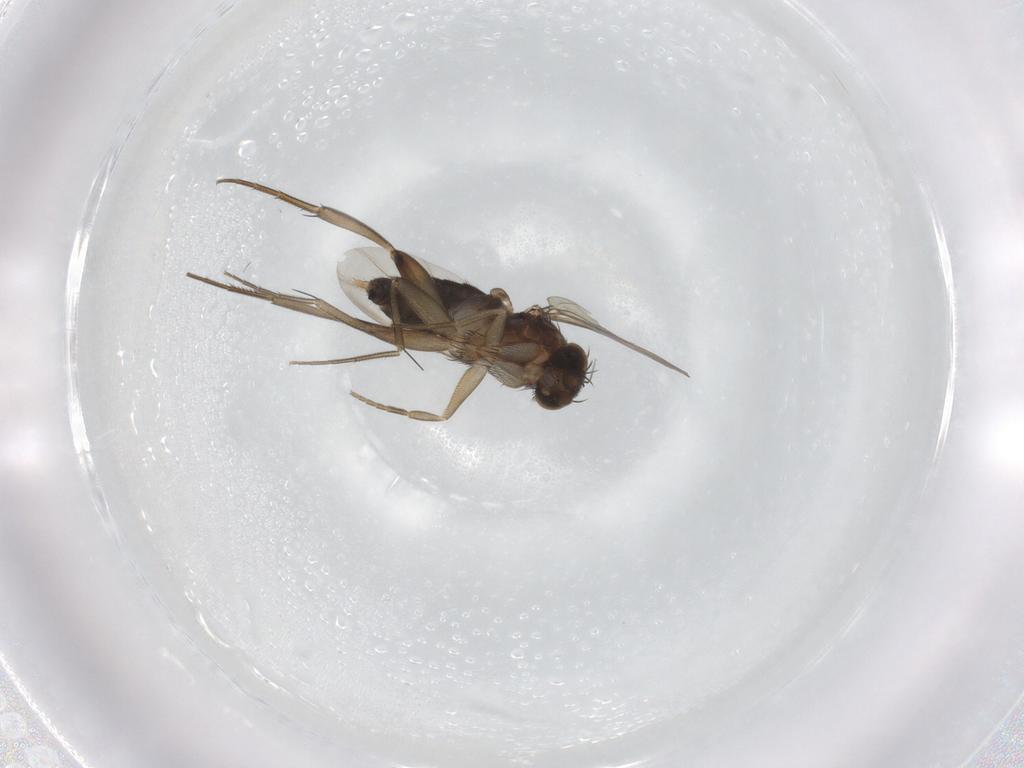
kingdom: Animalia
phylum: Arthropoda
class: Insecta
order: Diptera
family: Phoridae
